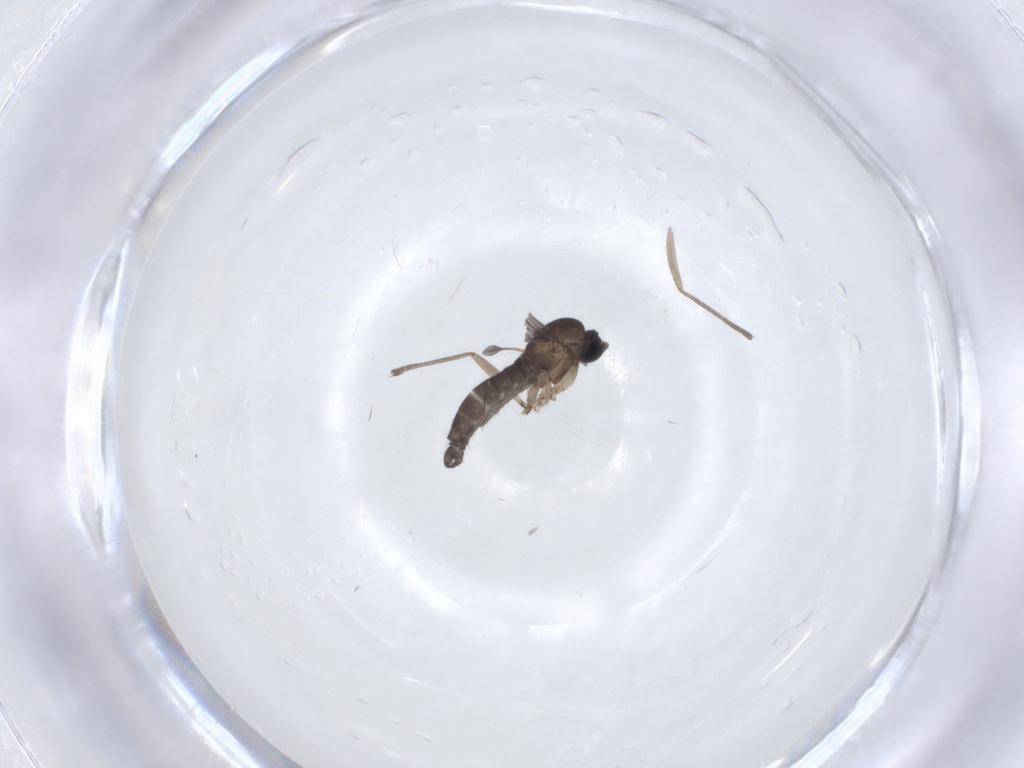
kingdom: Animalia
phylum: Arthropoda
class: Insecta
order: Diptera
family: Sciaridae
